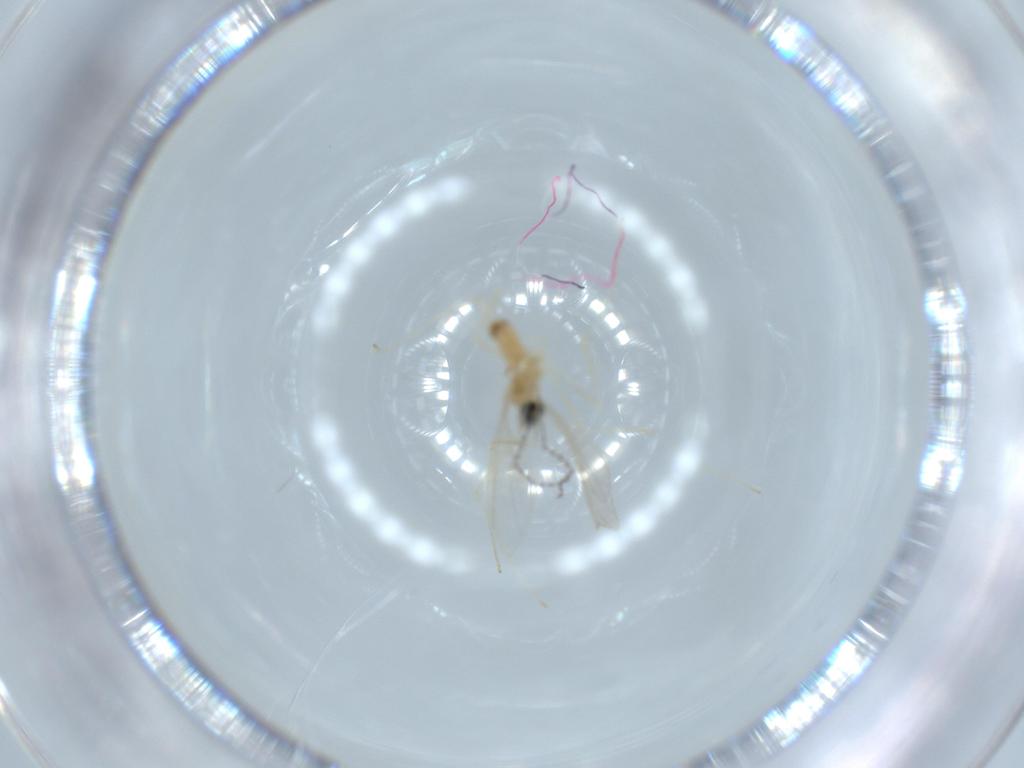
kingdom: Animalia
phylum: Arthropoda
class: Insecta
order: Diptera
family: Cecidomyiidae
